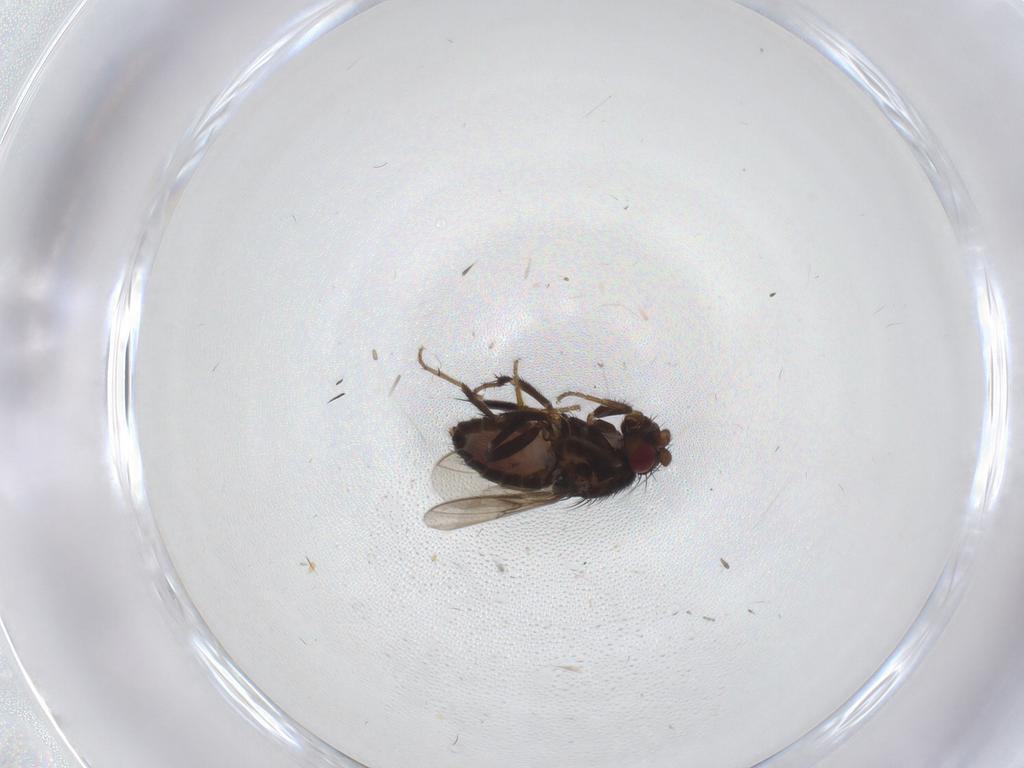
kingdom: Animalia
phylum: Arthropoda
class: Insecta
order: Diptera
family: Sphaeroceridae
